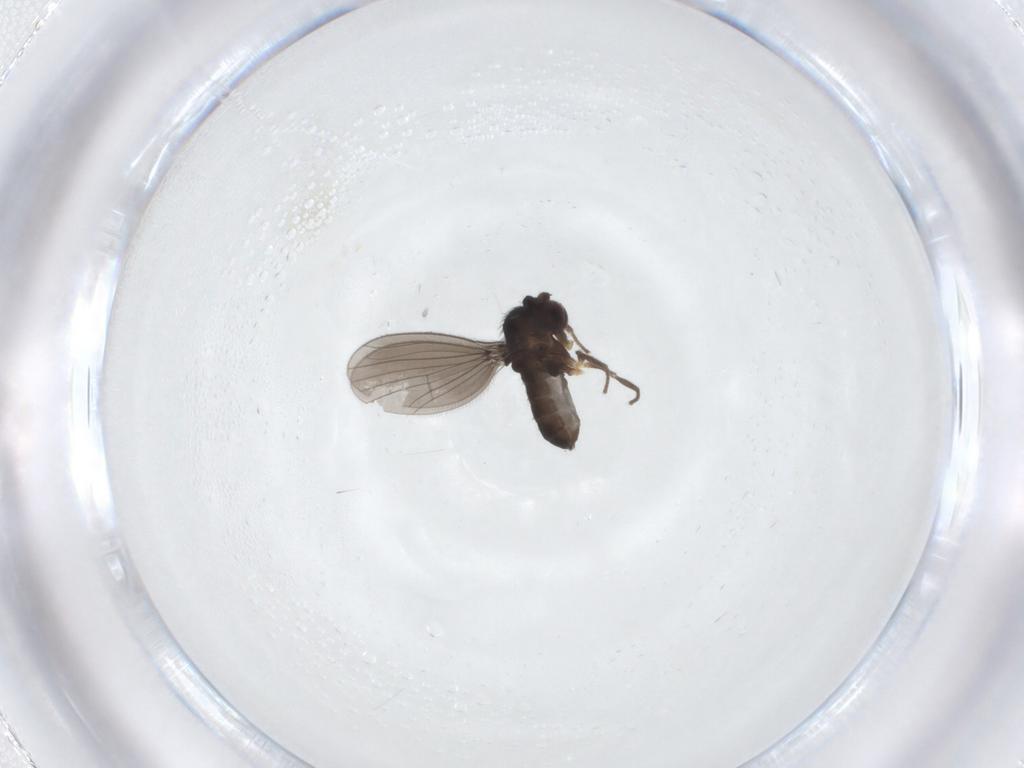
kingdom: Animalia
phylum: Arthropoda
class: Insecta
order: Diptera
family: Dolichopodidae
